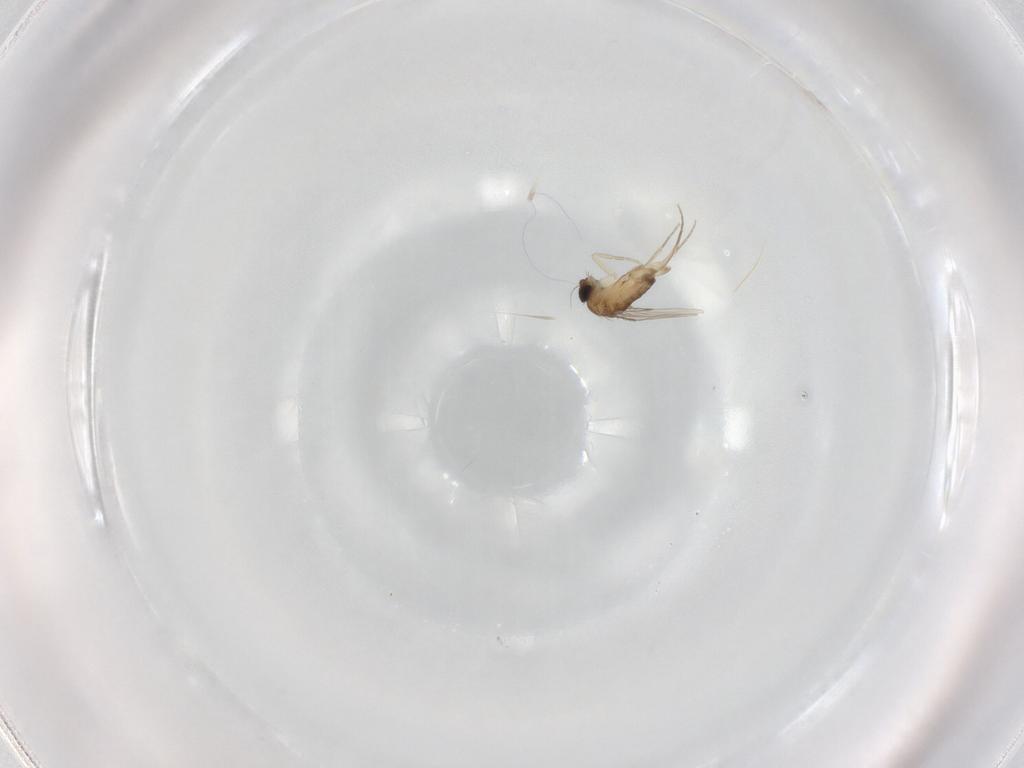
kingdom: Animalia
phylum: Arthropoda
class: Insecta
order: Diptera
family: Phoridae
